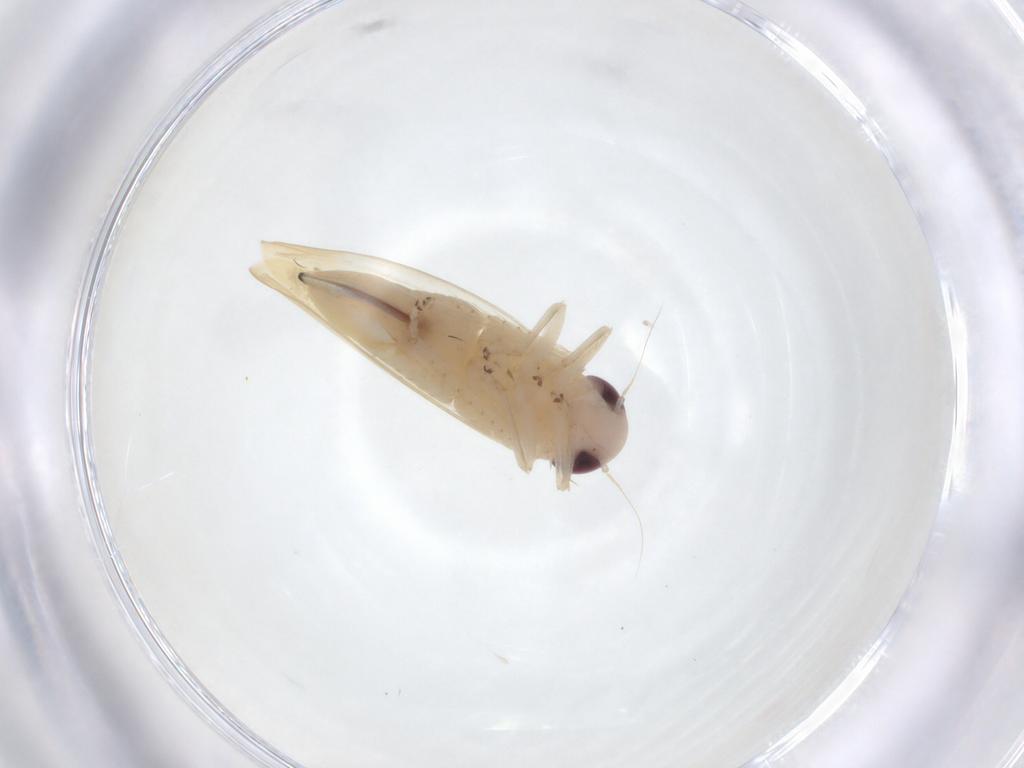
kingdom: Animalia
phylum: Arthropoda
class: Insecta
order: Hemiptera
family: Cicadellidae
